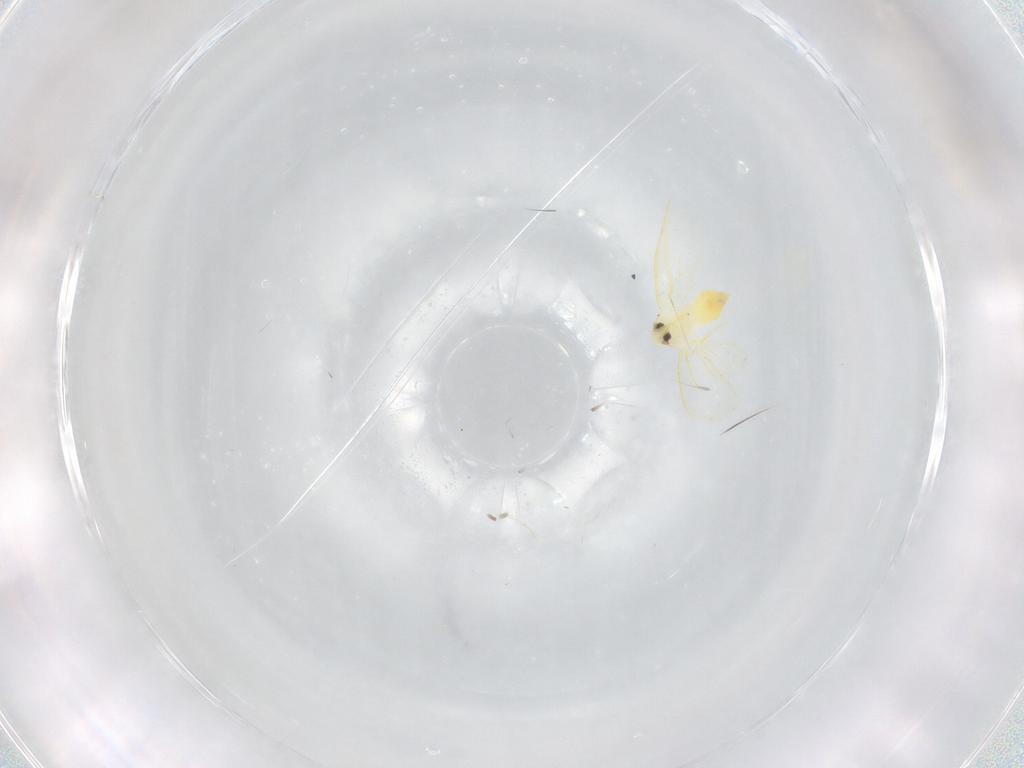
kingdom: Animalia
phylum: Arthropoda
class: Insecta
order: Hemiptera
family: Coccoidea_incertae_sedis
